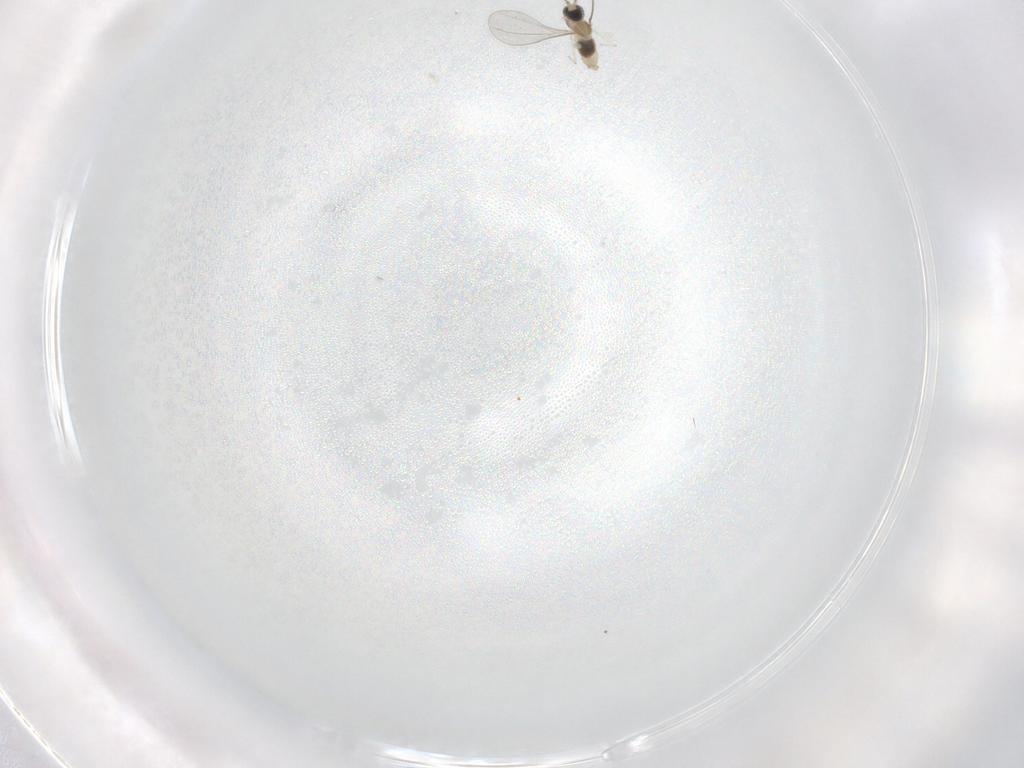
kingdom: Animalia
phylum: Arthropoda
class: Insecta
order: Diptera
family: Cecidomyiidae
